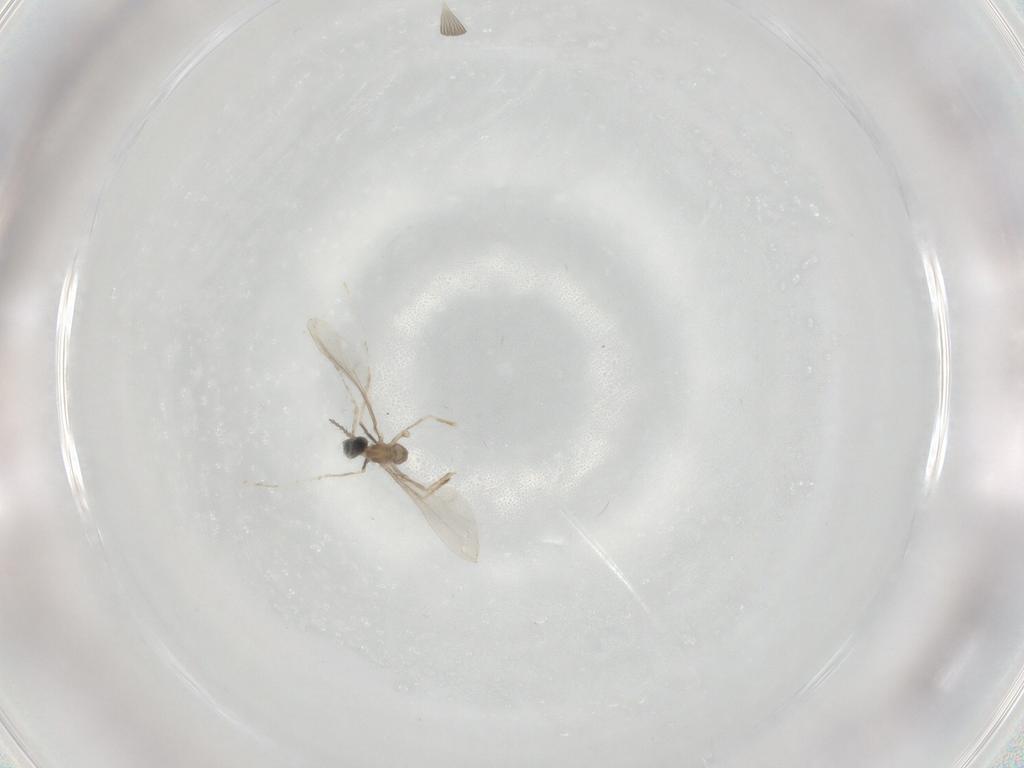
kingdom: Animalia
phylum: Arthropoda
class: Insecta
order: Diptera
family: Cecidomyiidae
